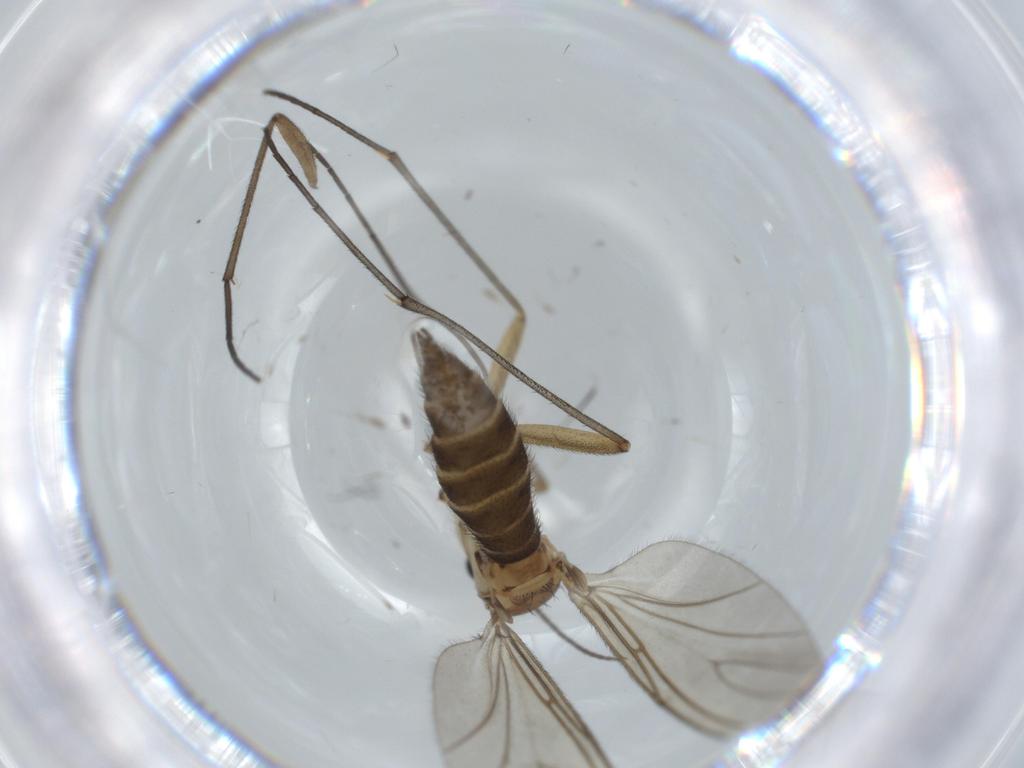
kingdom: Animalia
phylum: Arthropoda
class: Insecta
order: Diptera
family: Sciaridae
